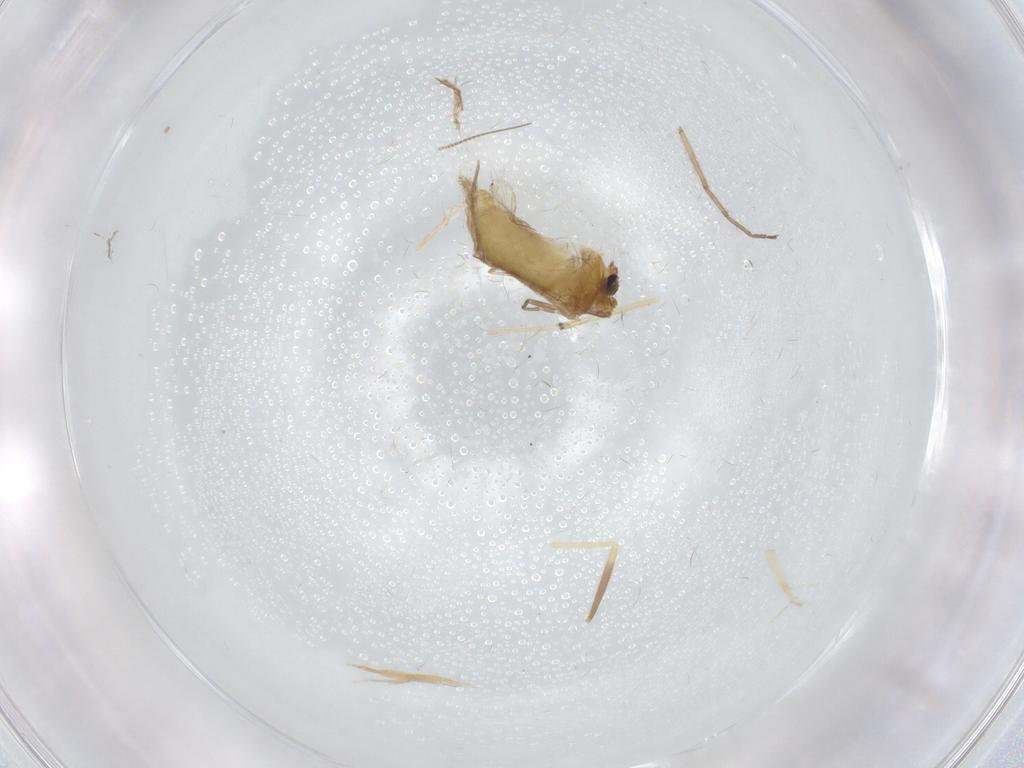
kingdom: Animalia
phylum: Arthropoda
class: Insecta
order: Diptera
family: Chironomidae
